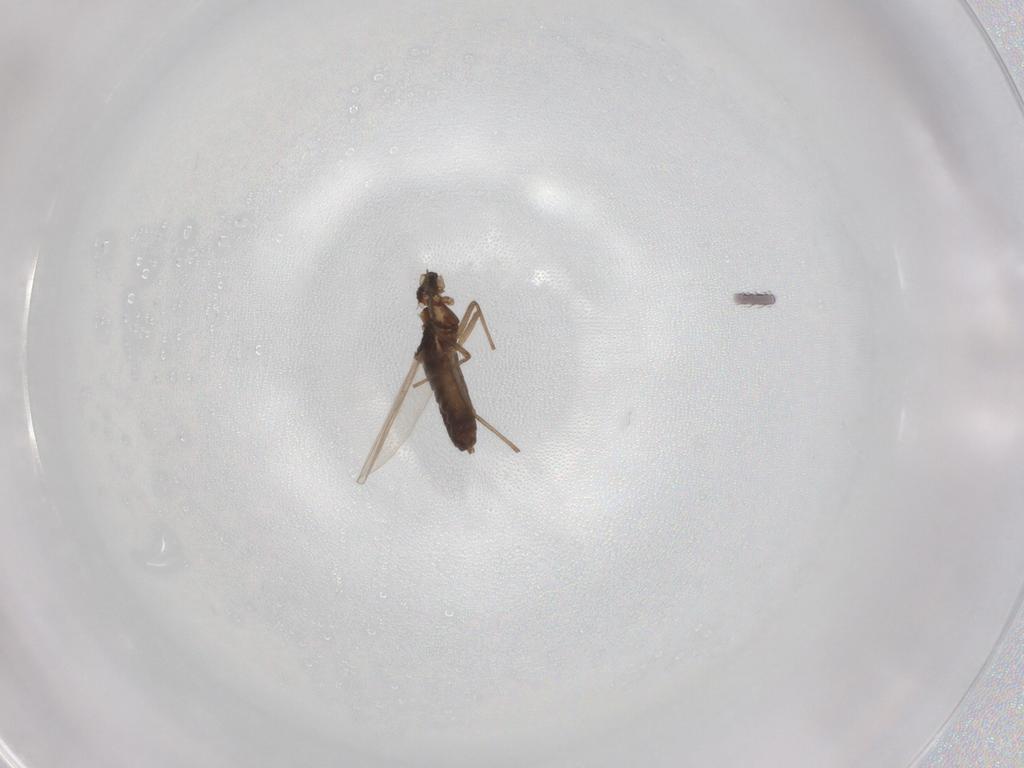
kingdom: Animalia
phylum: Arthropoda
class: Insecta
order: Diptera
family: Chironomidae
